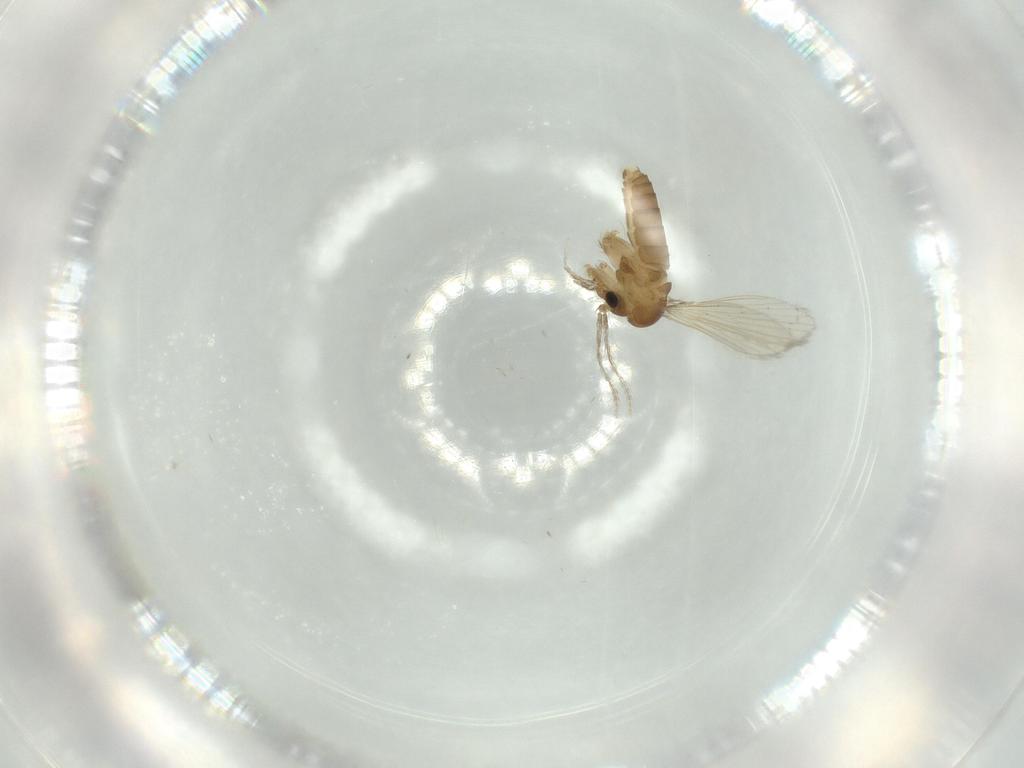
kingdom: Animalia
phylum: Arthropoda
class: Insecta
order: Diptera
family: Psychodidae
